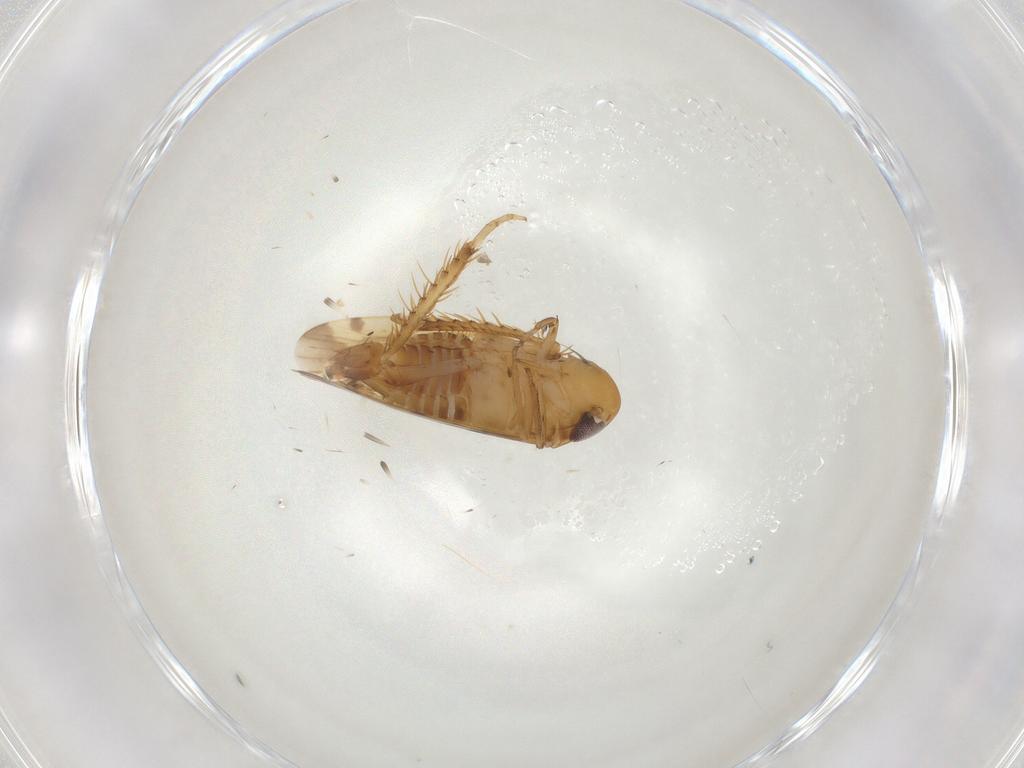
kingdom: Animalia
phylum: Arthropoda
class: Insecta
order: Hemiptera
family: Cicadellidae
